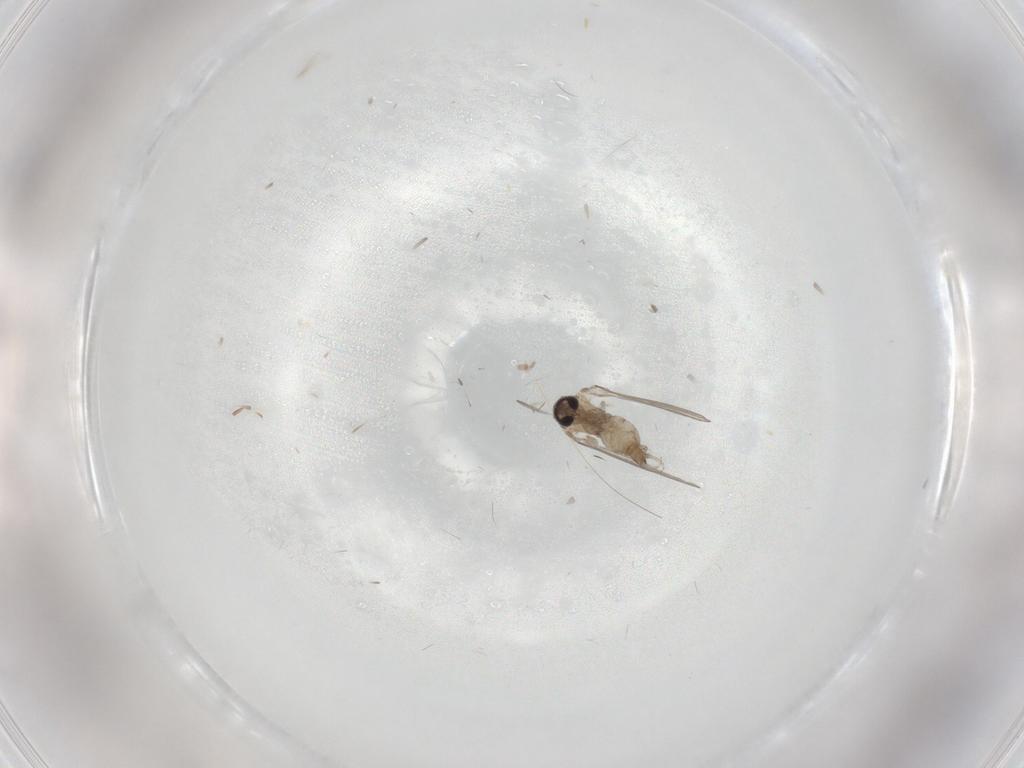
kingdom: Animalia
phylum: Arthropoda
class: Insecta
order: Diptera
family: Psychodidae
